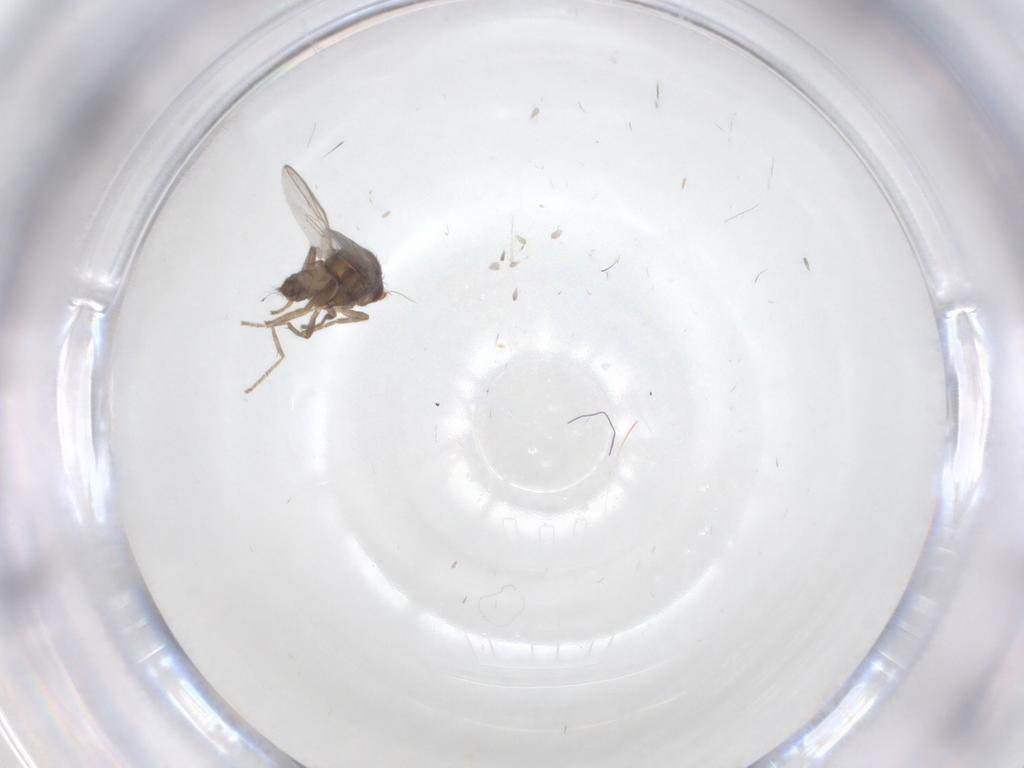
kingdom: Animalia
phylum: Arthropoda
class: Insecta
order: Diptera
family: Sphaeroceridae
